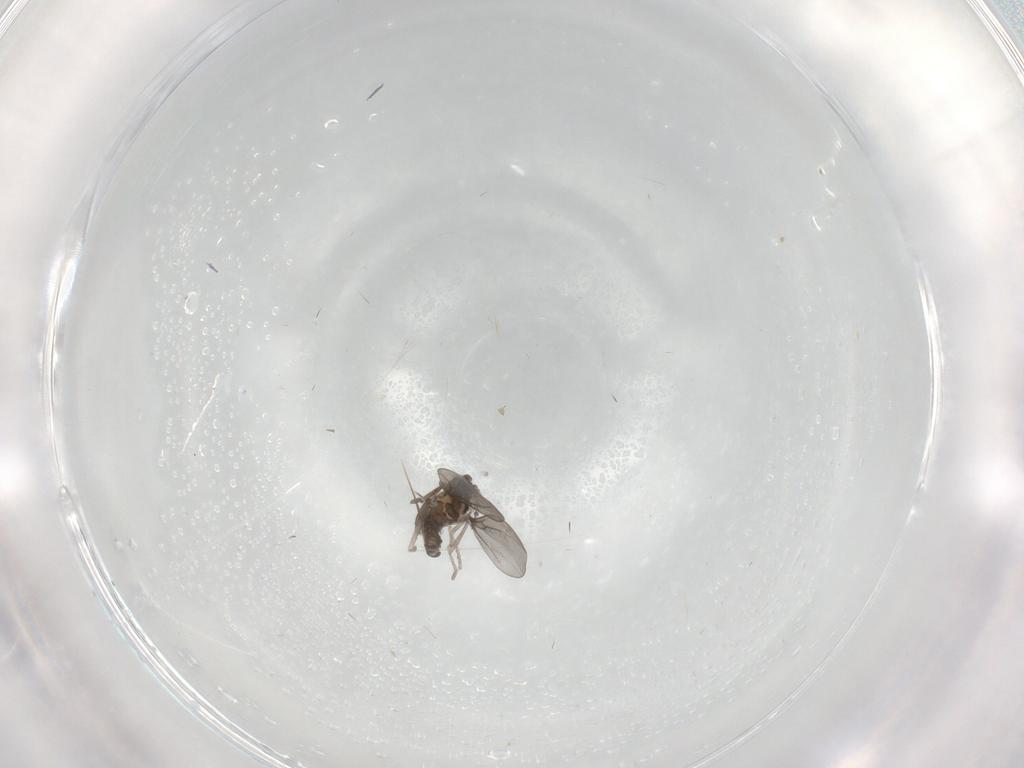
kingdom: Animalia
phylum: Arthropoda
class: Insecta
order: Diptera
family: Cecidomyiidae
